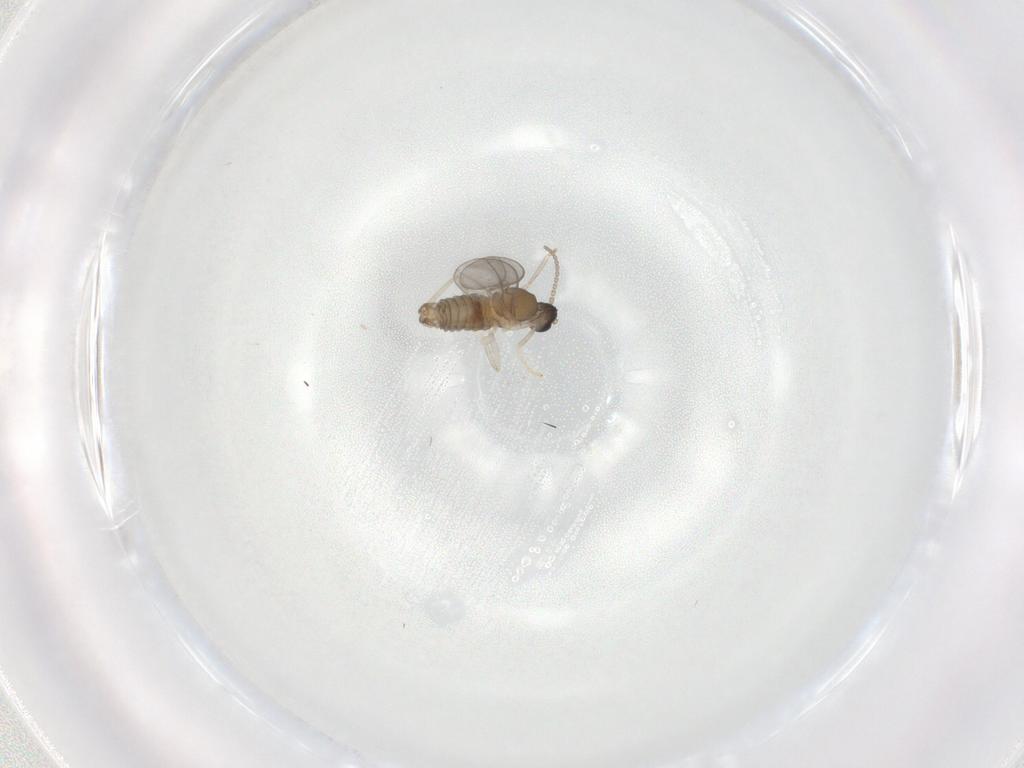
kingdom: Animalia
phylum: Arthropoda
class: Insecta
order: Diptera
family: Cecidomyiidae
